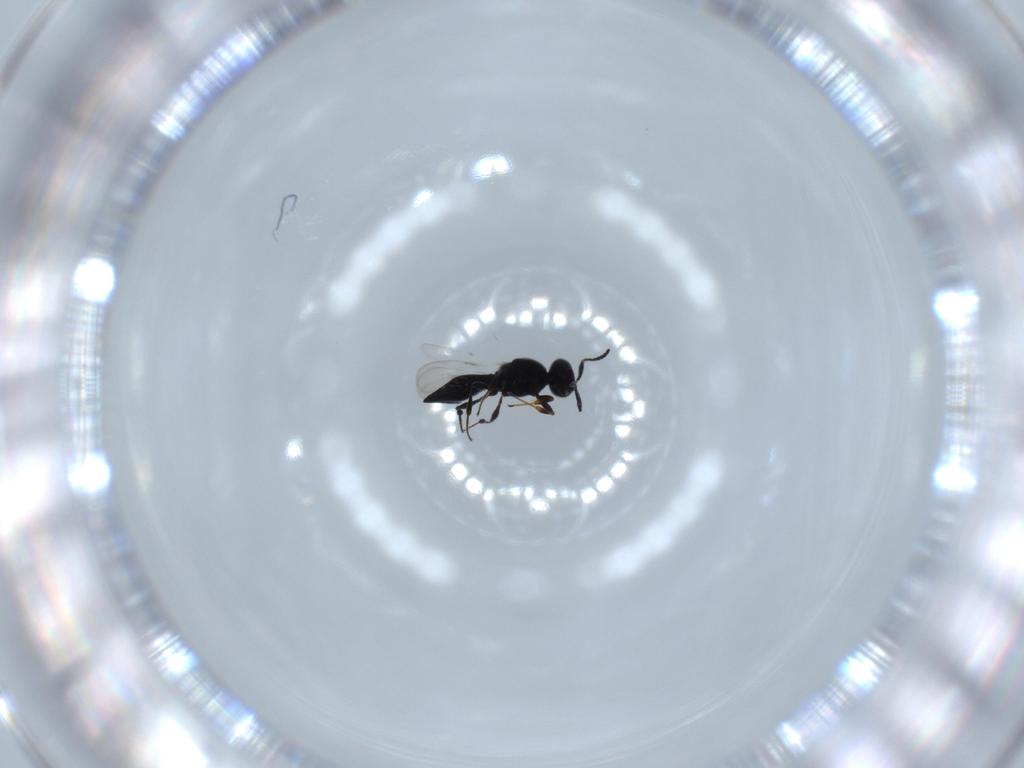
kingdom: Animalia
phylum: Arthropoda
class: Insecta
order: Diptera
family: Mythicomyiidae
